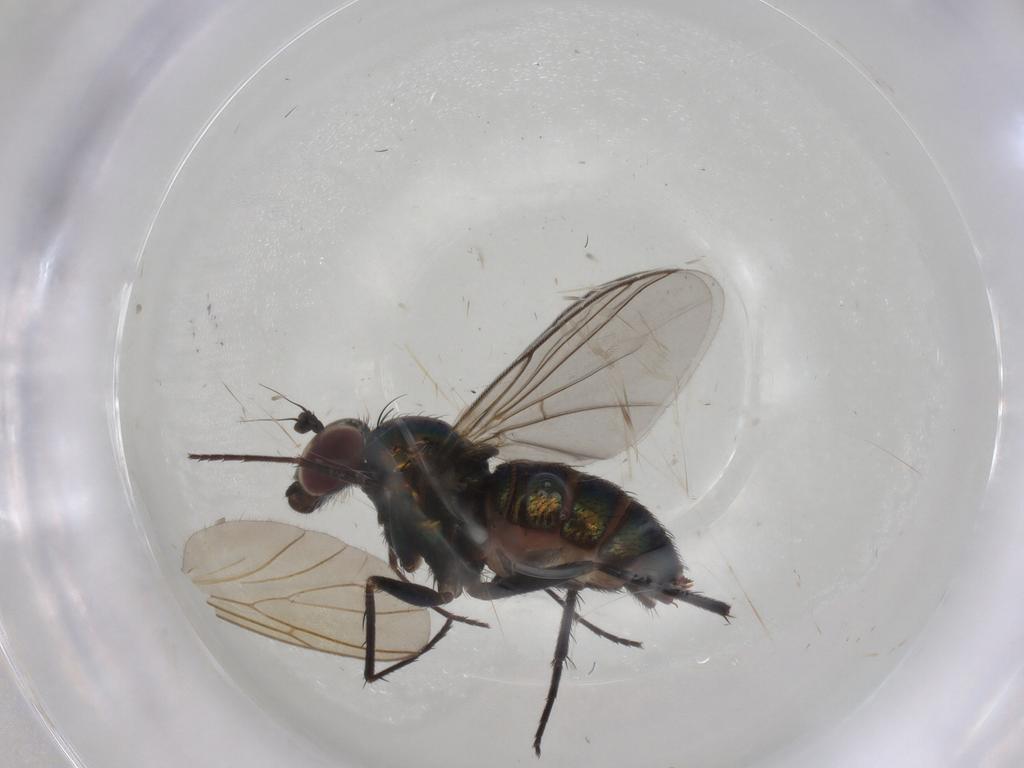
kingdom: Animalia
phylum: Arthropoda
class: Insecta
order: Diptera
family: Dolichopodidae
